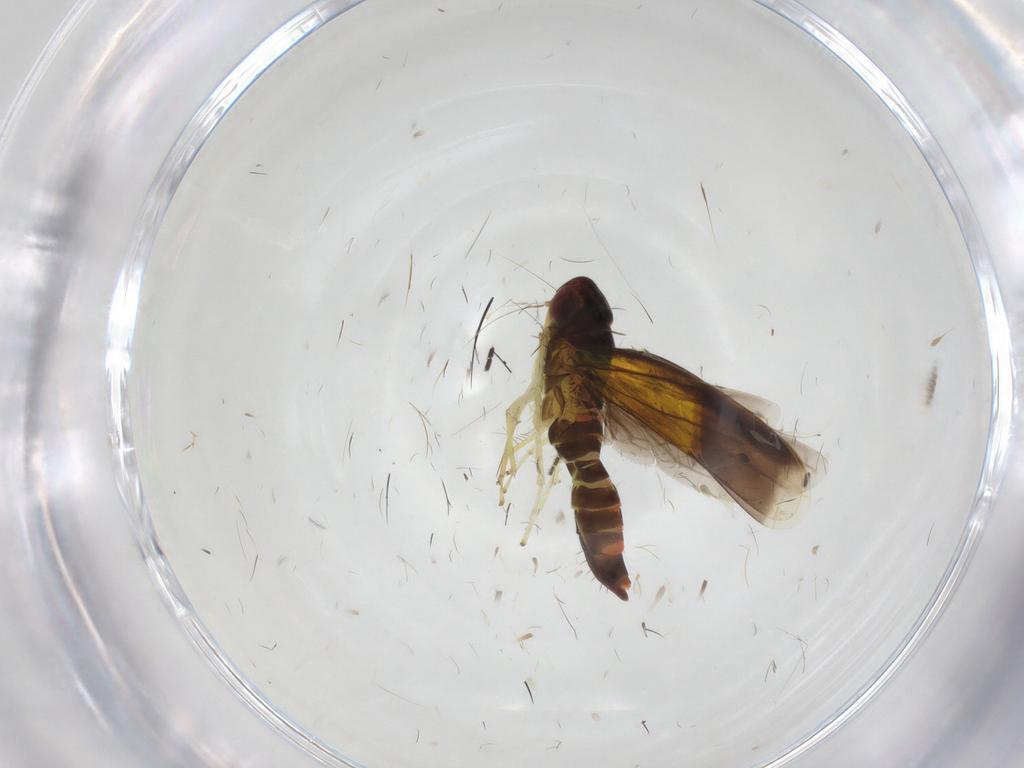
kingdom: Animalia
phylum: Arthropoda
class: Insecta
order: Hemiptera
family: Cicadellidae
